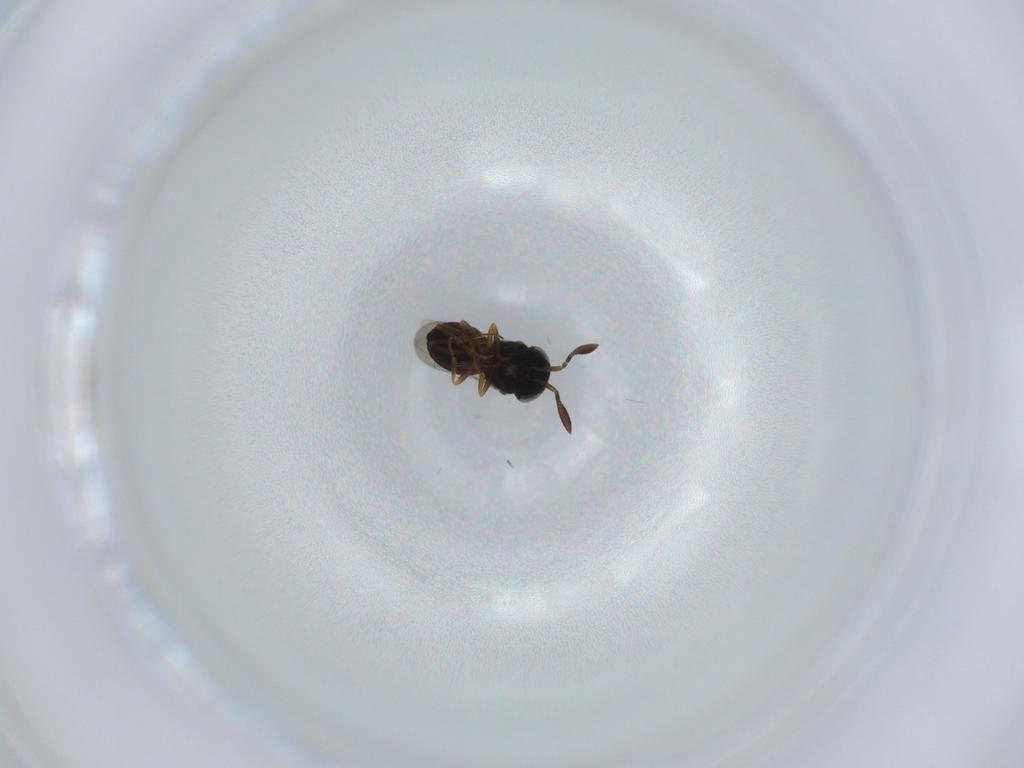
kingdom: Animalia
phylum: Arthropoda
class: Insecta
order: Hymenoptera
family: Scelionidae
